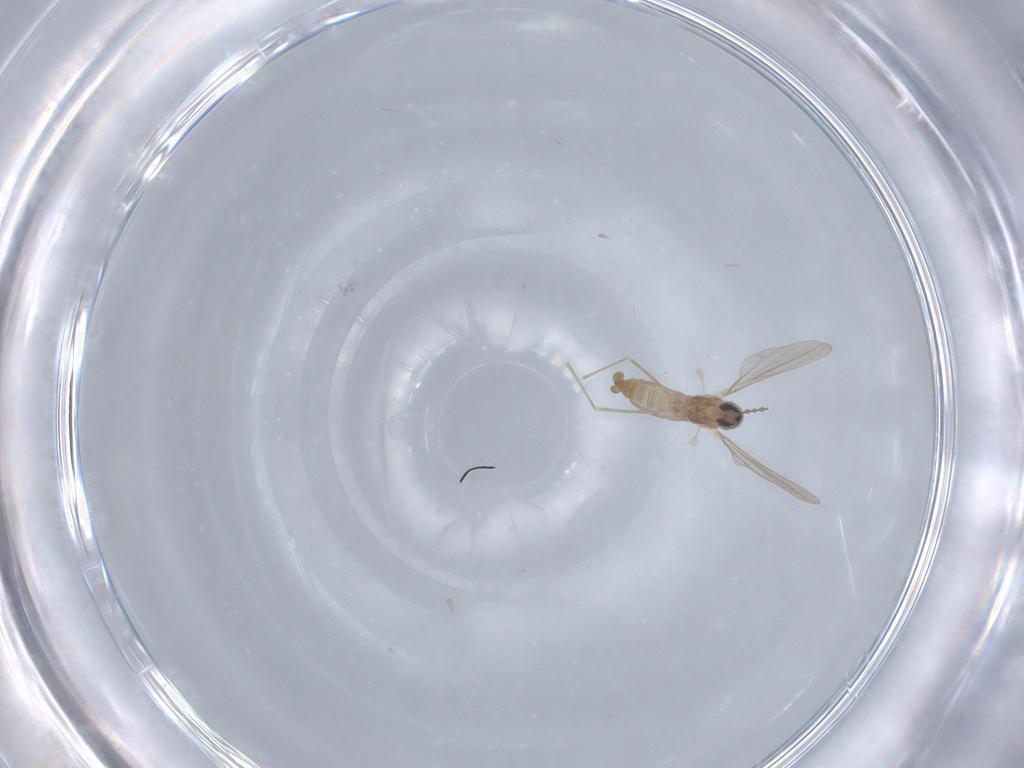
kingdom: Animalia
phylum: Arthropoda
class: Insecta
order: Diptera
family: Cecidomyiidae
